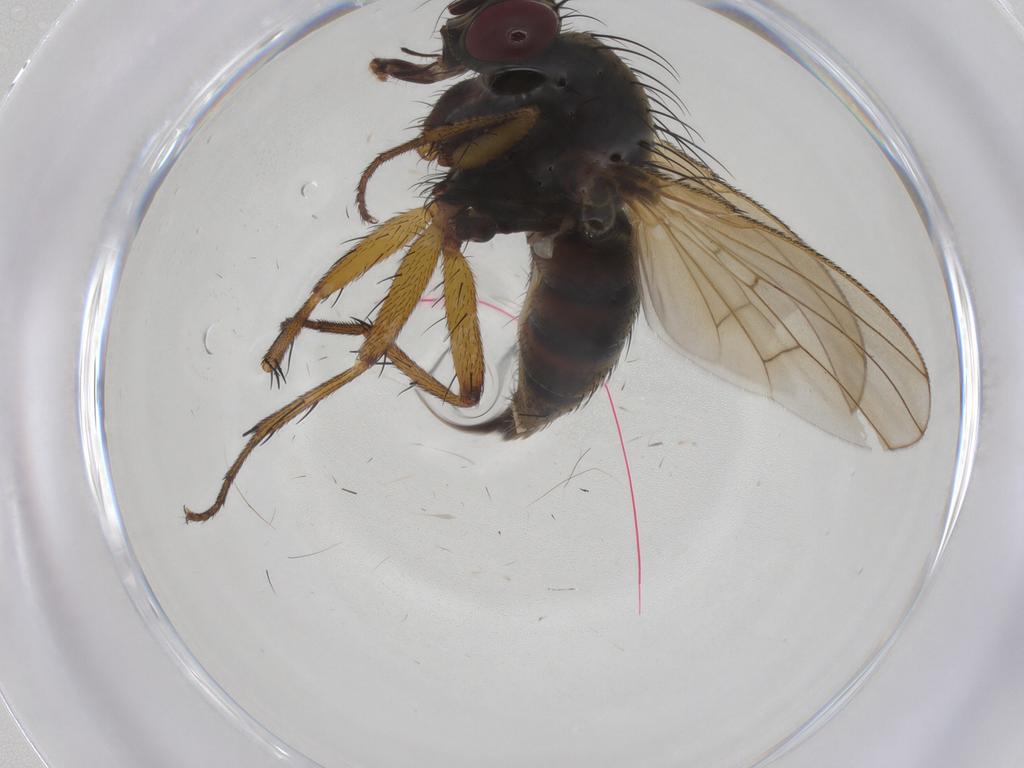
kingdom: Animalia
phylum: Arthropoda
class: Insecta
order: Diptera
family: Muscidae
